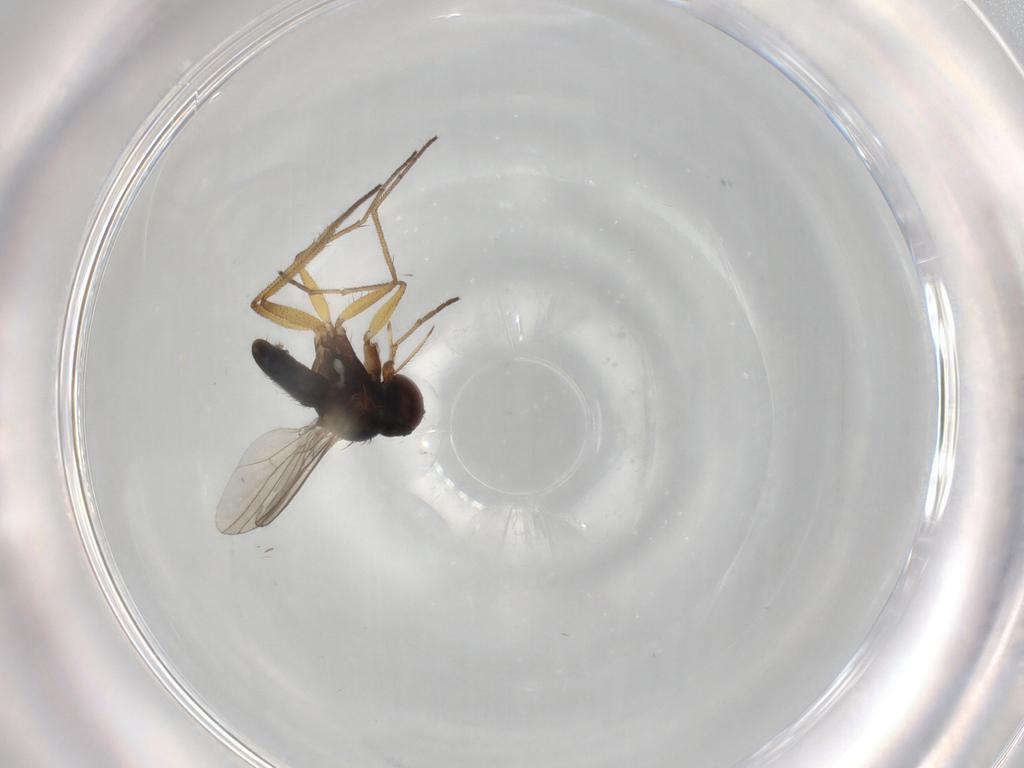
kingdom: Animalia
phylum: Arthropoda
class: Insecta
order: Diptera
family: Dolichopodidae
